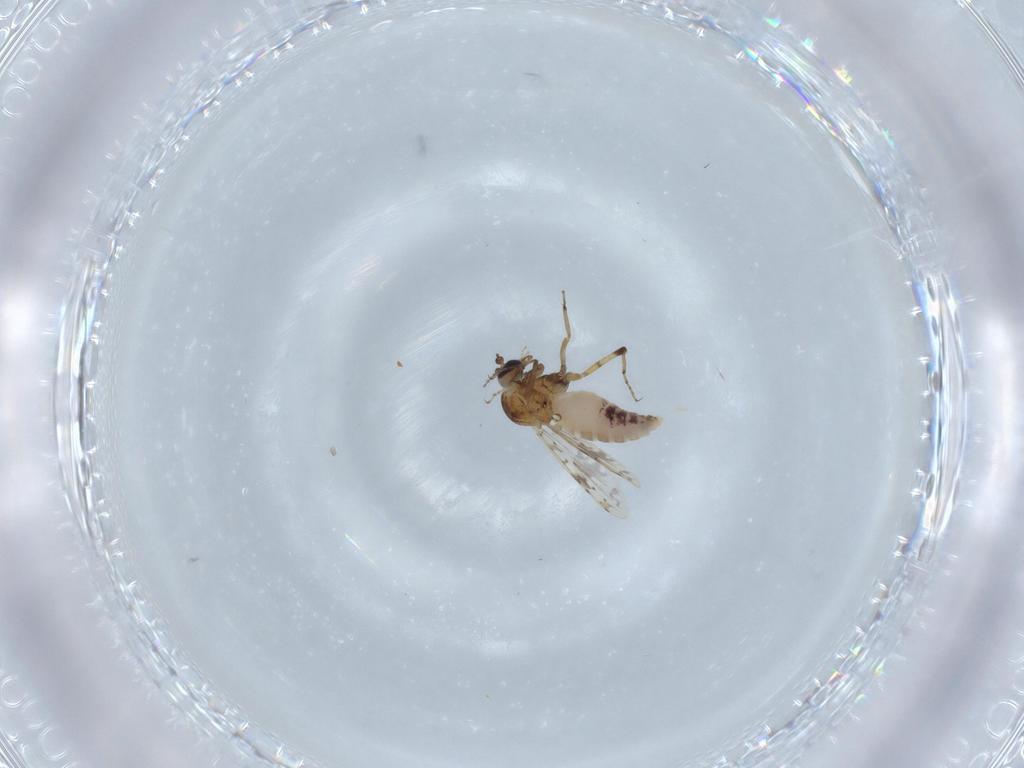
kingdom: Animalia
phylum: Arthropoda
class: Insecta
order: Diptera
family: Ceratopogonidae
